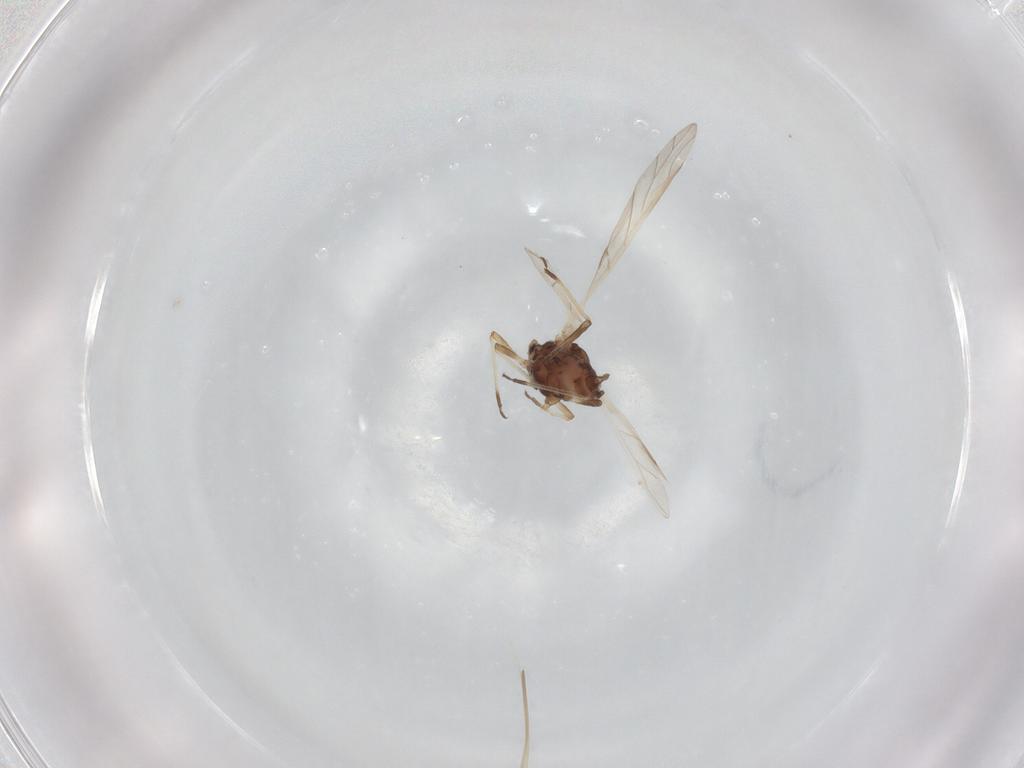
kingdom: Animalia
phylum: Arthropoda
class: Insecta
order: Hemiptera
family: Aphididae
